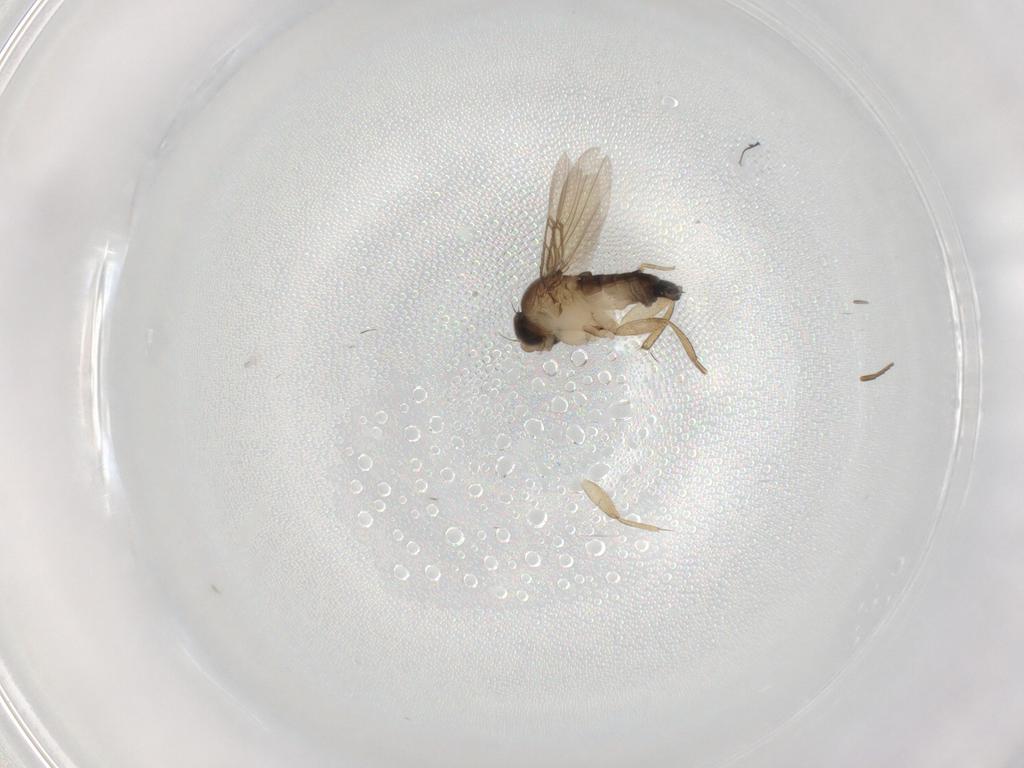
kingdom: Animalia
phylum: Arthropoda
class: Insecta
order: Diptera
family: Phoridae
